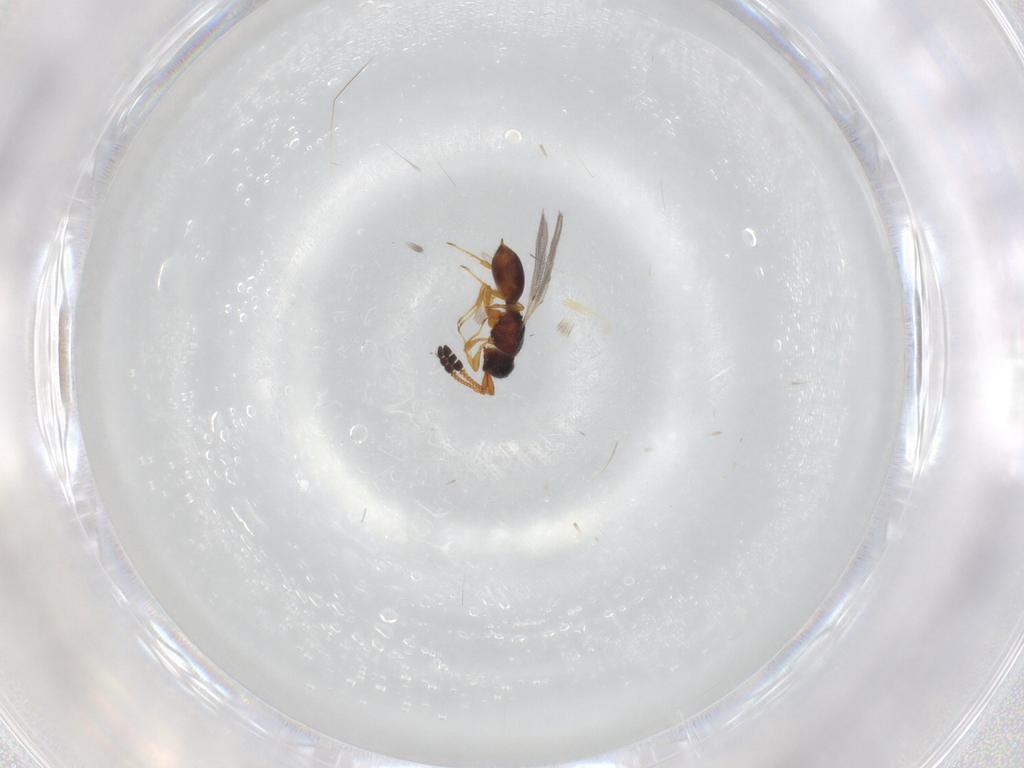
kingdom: Animalia
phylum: Arthropoda
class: Insecta
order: Hymenoptera
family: Diapriidae
